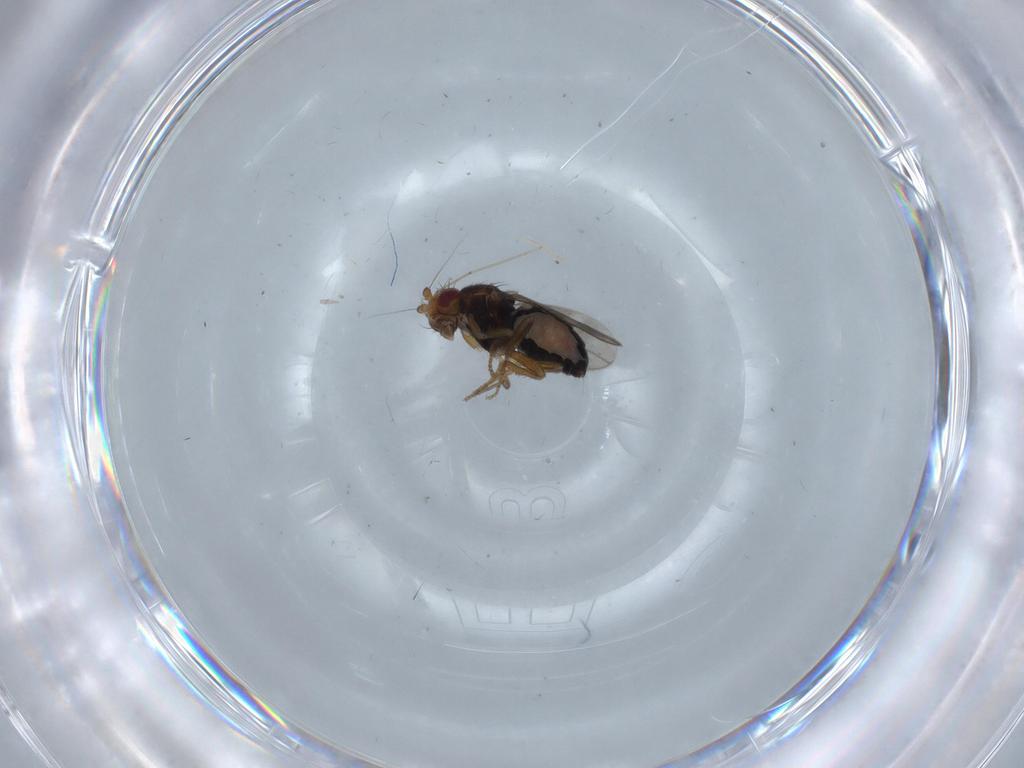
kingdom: Animalia
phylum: Arthropoda
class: Insecta
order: Diptera
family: Sphaeroceridae
